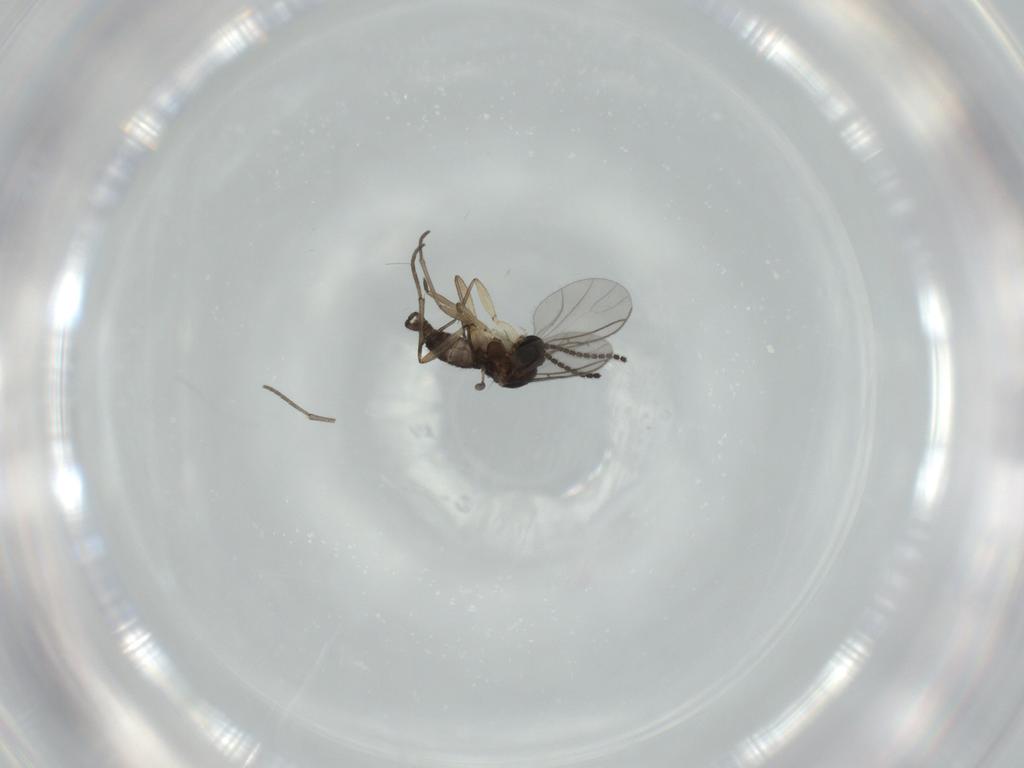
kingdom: Animalia
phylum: Arthropoda
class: Insecta
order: Diptera
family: Sciaridae
